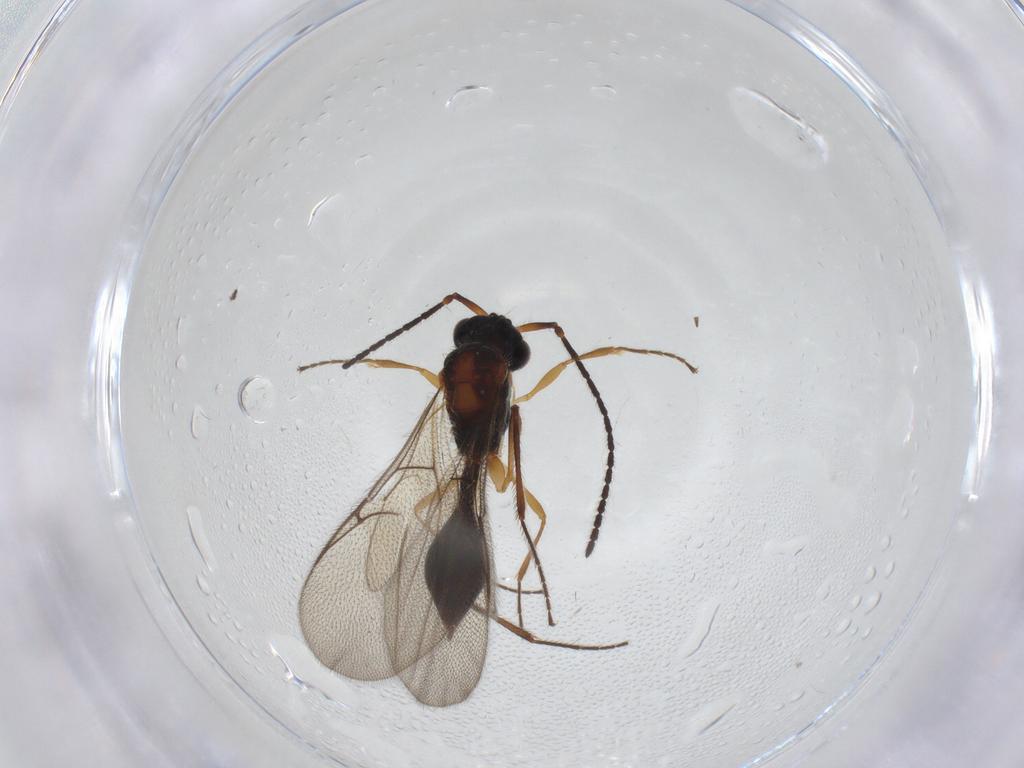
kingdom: Animalia
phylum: Arthropoda
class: Insecta
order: Hymenoptera
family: Diapriidae
